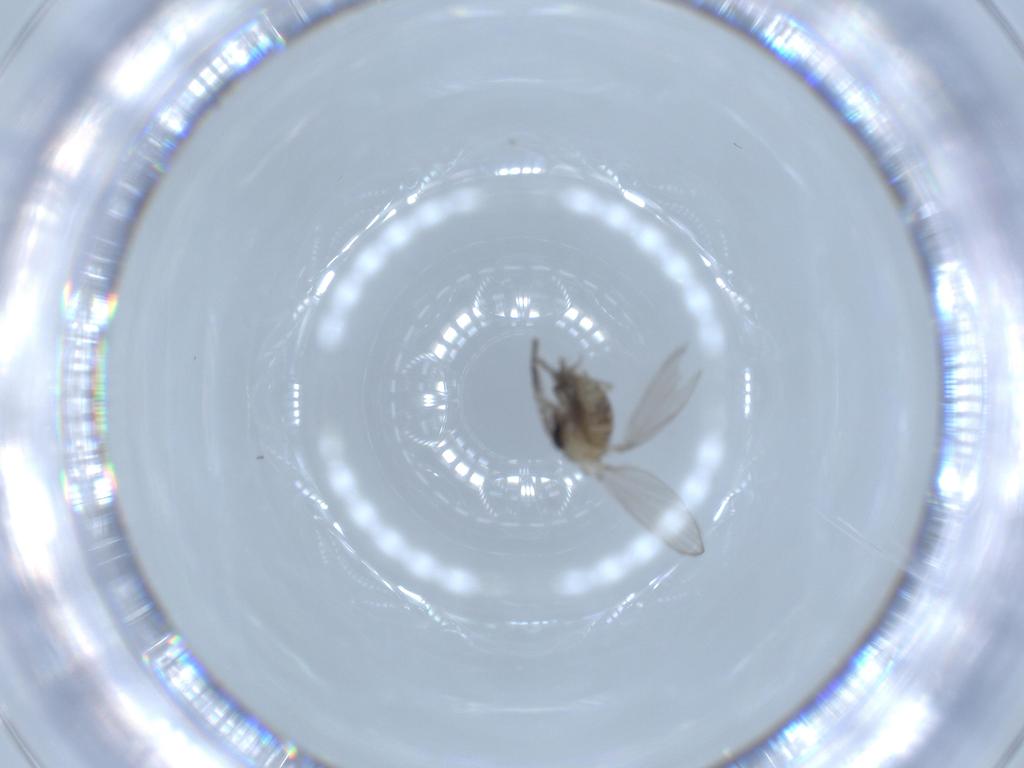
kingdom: Animalia
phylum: Arthropoda
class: Insecta
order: Diptera
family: Psychodidae
